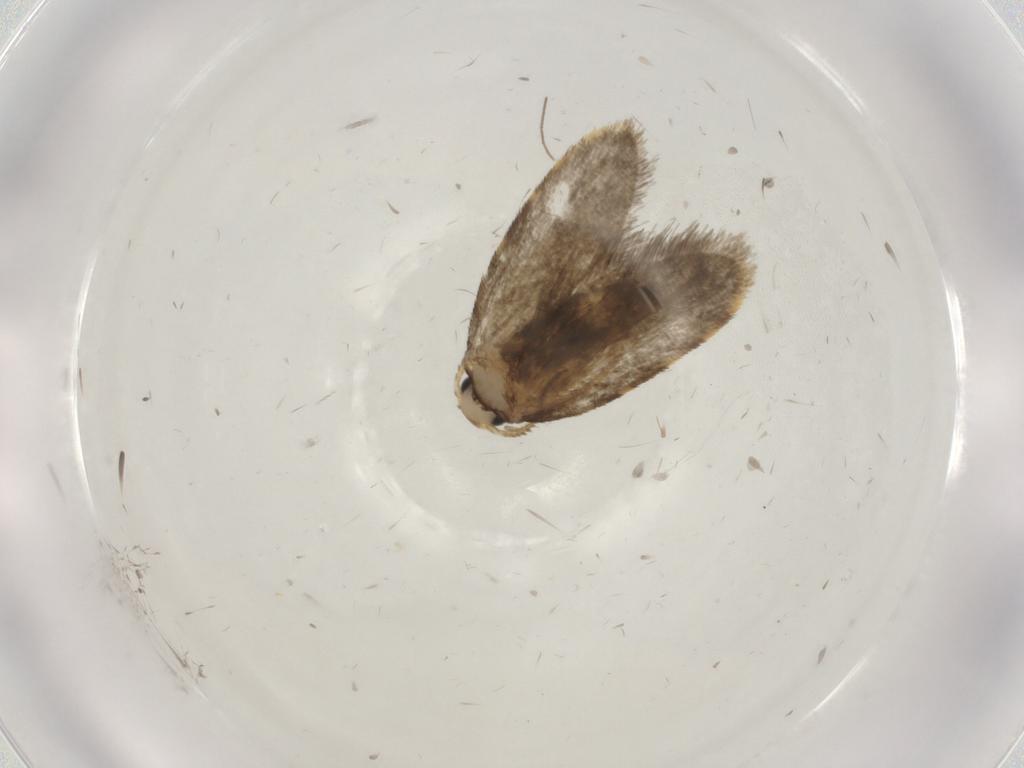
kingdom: Animalia
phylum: Arthropoda
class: Insecta
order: Lepidoptera
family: Psychidae
